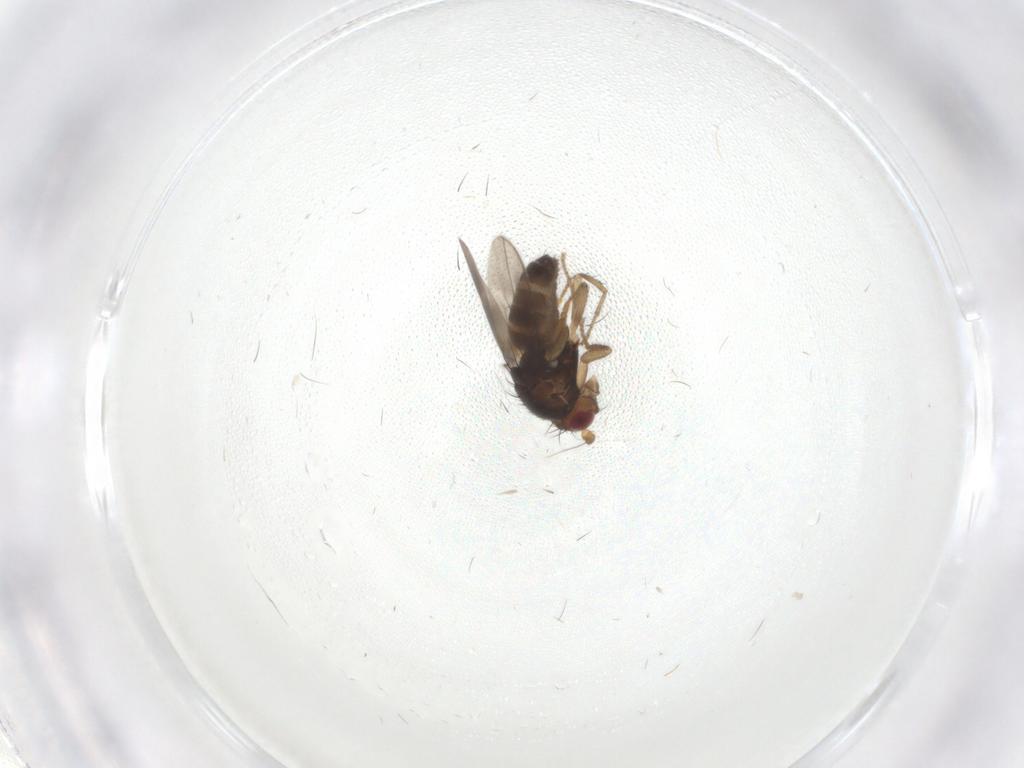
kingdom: Animalia
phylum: Arthropoda
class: Insecta
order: Diptera
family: Sphaeroceridae
